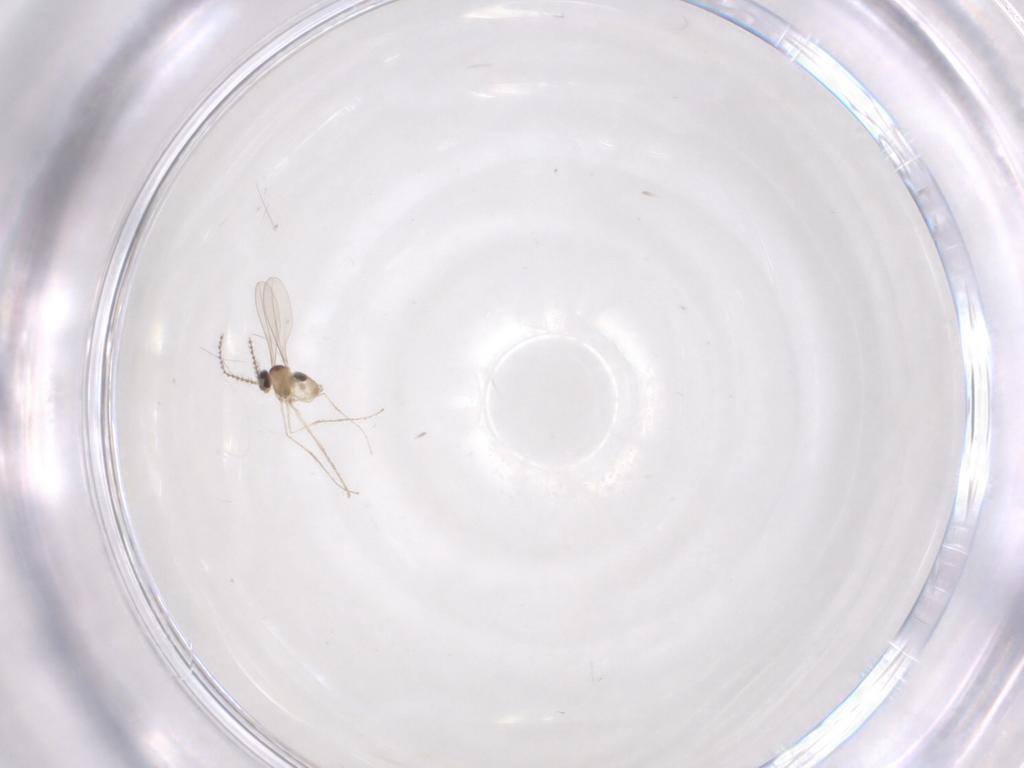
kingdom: Animalia
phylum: Arthropoda
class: Insecta
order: Diptera
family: Cecidomyiidae
